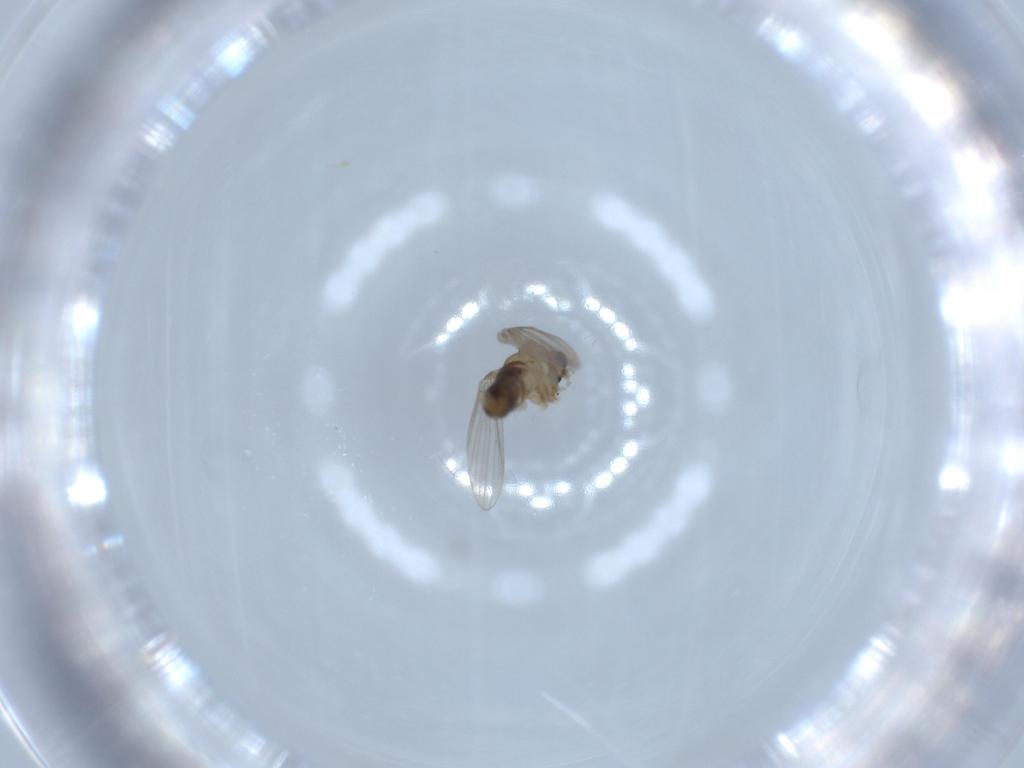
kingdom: Animalia
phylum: Arthropoda
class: Insecta
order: Diptera
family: Psychodidae
